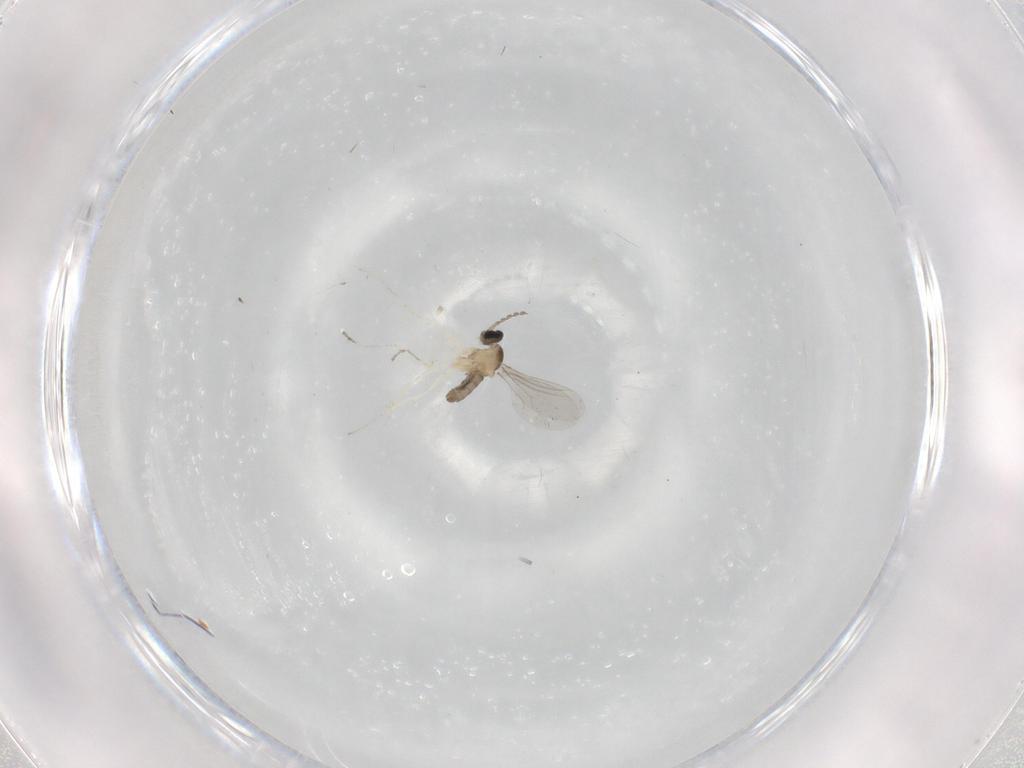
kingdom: Animalia
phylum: Arthropoda
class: Insecta
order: Diptera
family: Cecidomyiidae
